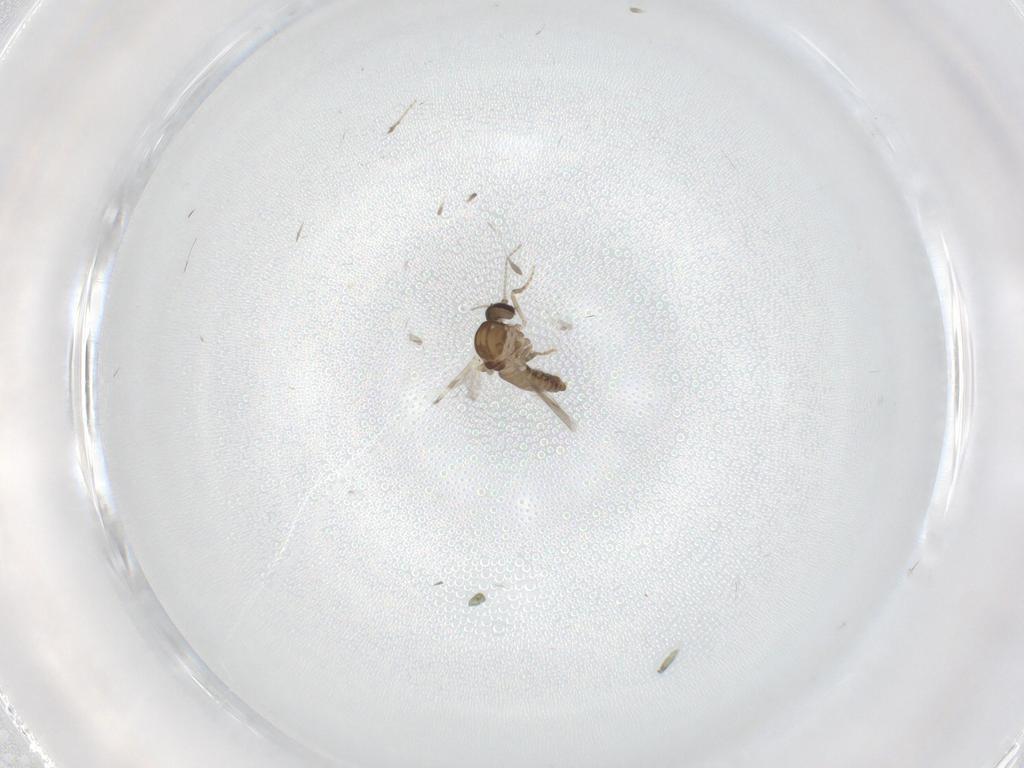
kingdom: Animalia
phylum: Arthropoda
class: Insecta
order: Diptera
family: Ceratopogonidae
